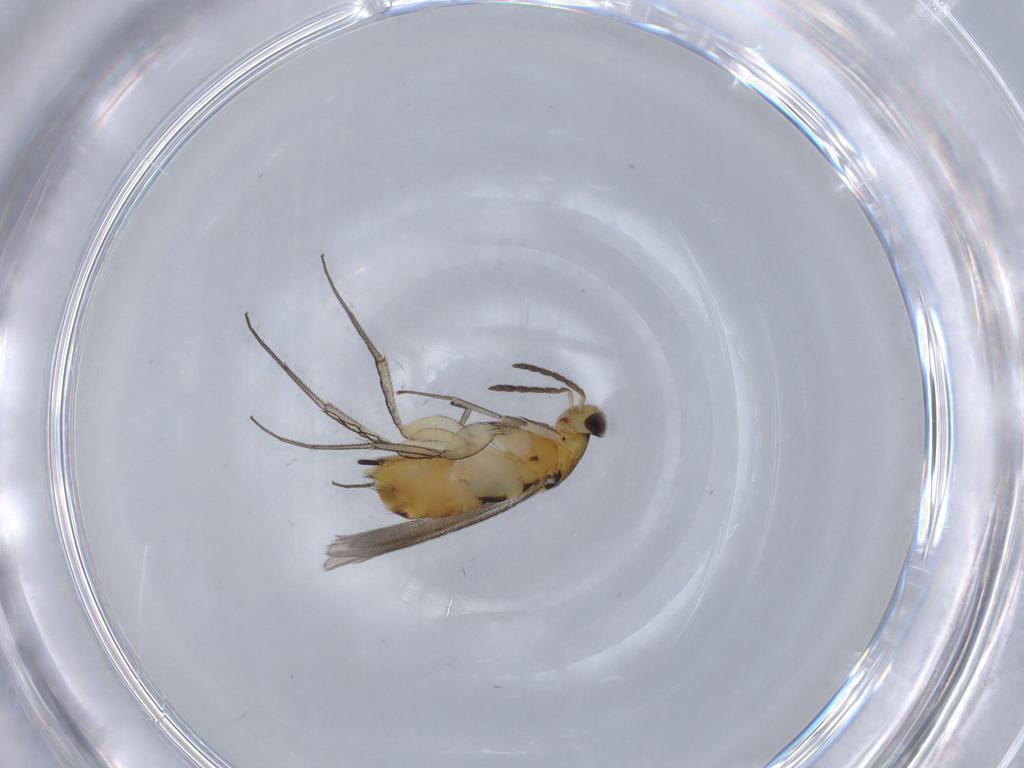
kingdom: Animalia
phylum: Arthropoda
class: Insecta
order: Hymenoptera
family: Eulophidae
